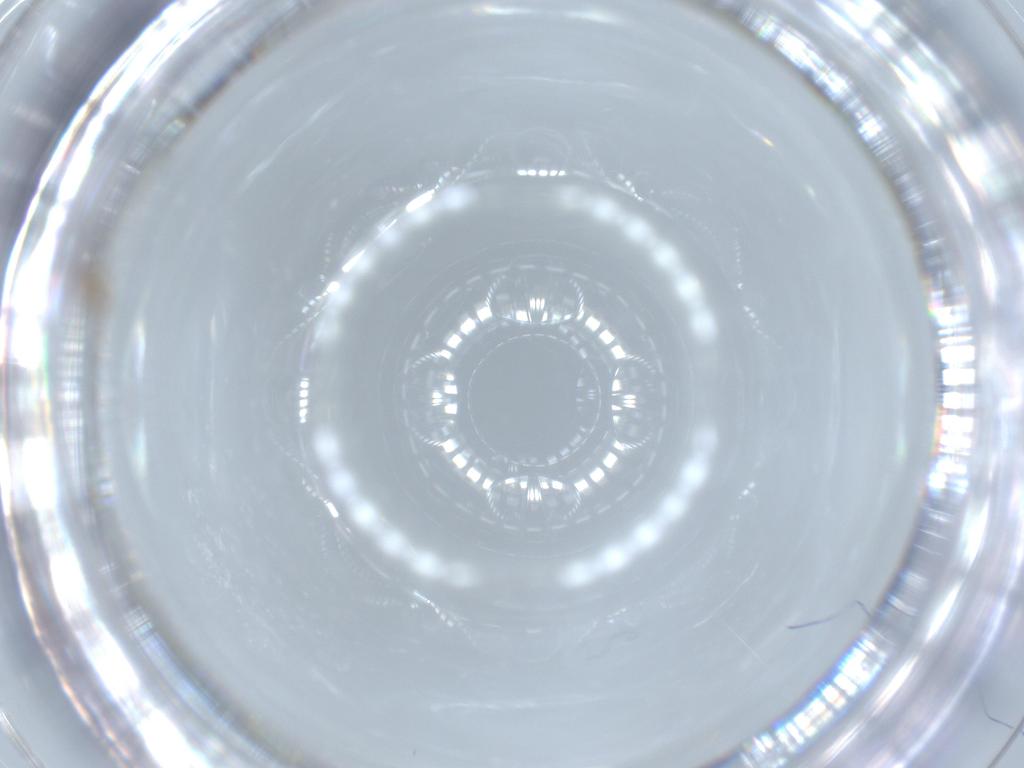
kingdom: Animalia
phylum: Arthropoda
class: Insecta
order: Hymenoptera
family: Mymaridae
